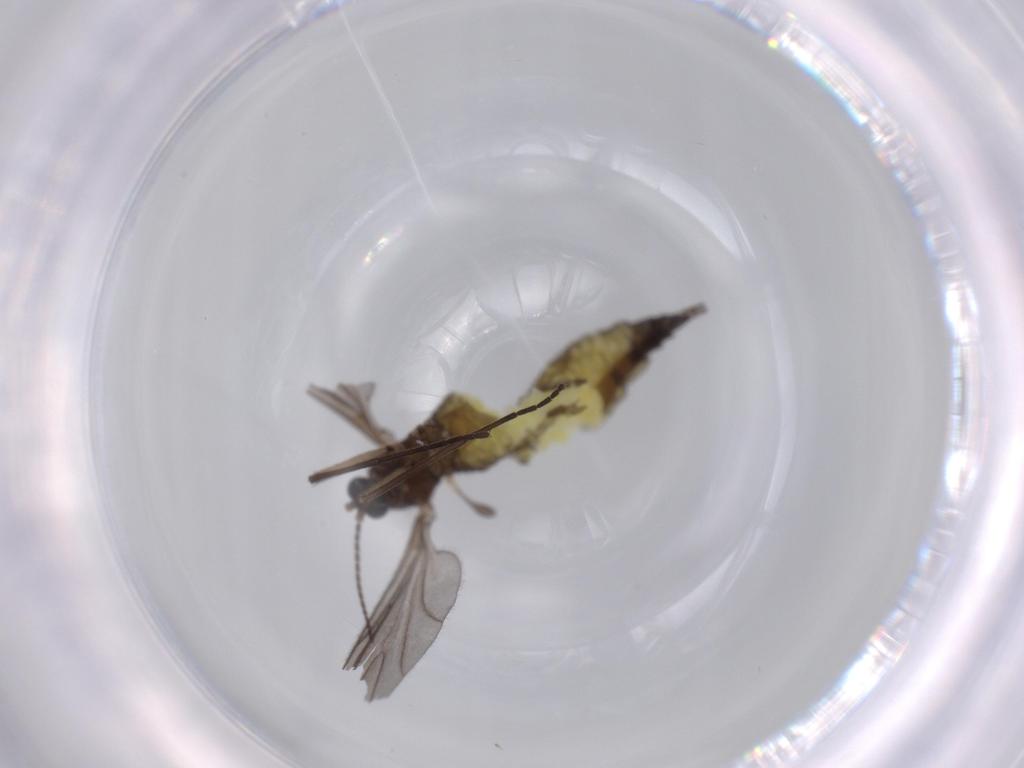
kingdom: Animalia
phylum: Arthropoda
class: Insecta
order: Diptera
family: Sciaridae
